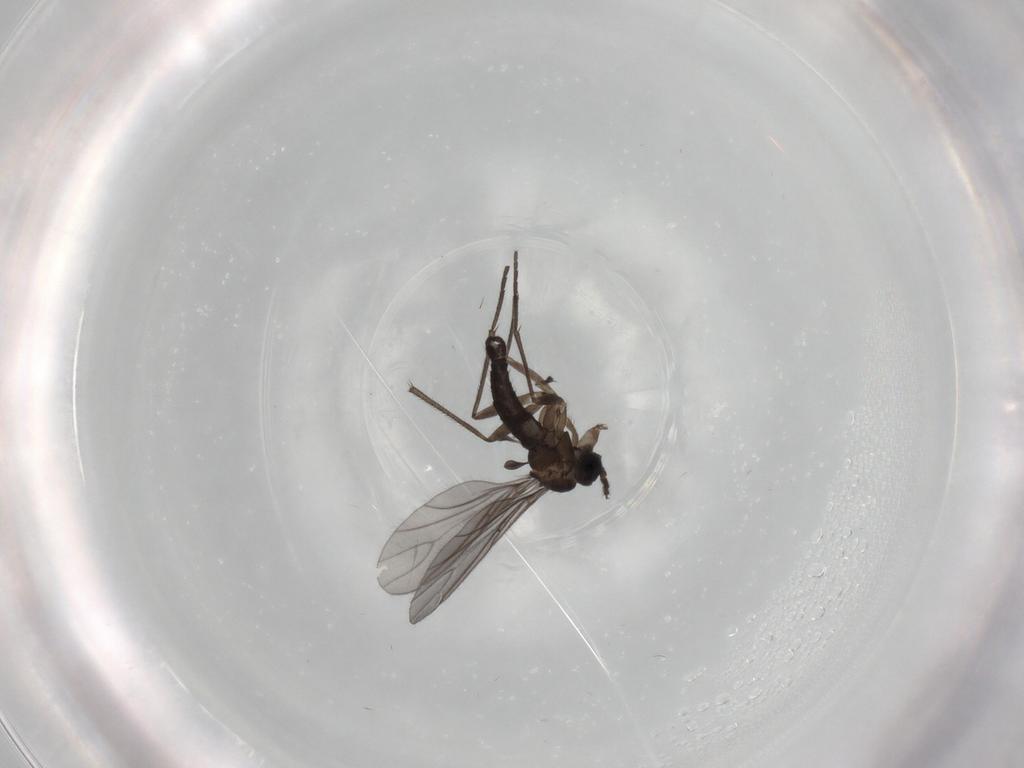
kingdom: Animalia
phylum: Arthropoda
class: Insecta
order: Diptera
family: Sciaridae
